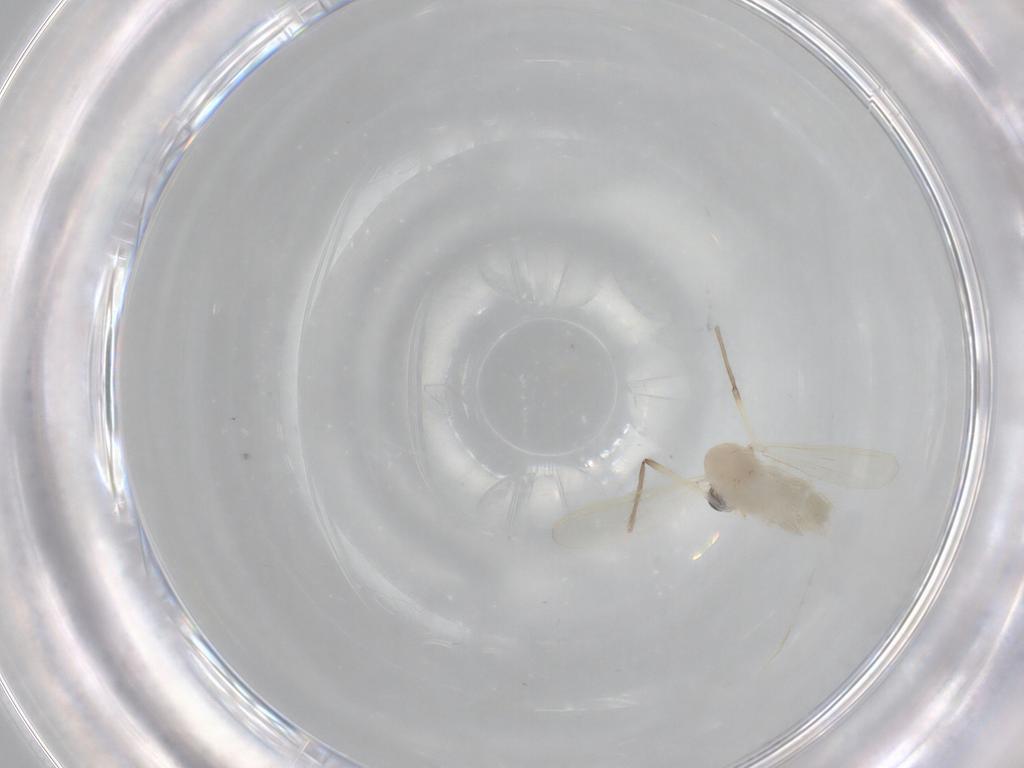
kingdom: Animalia
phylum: Arthropoda
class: Insecta
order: Diptera
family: Chironomidae
